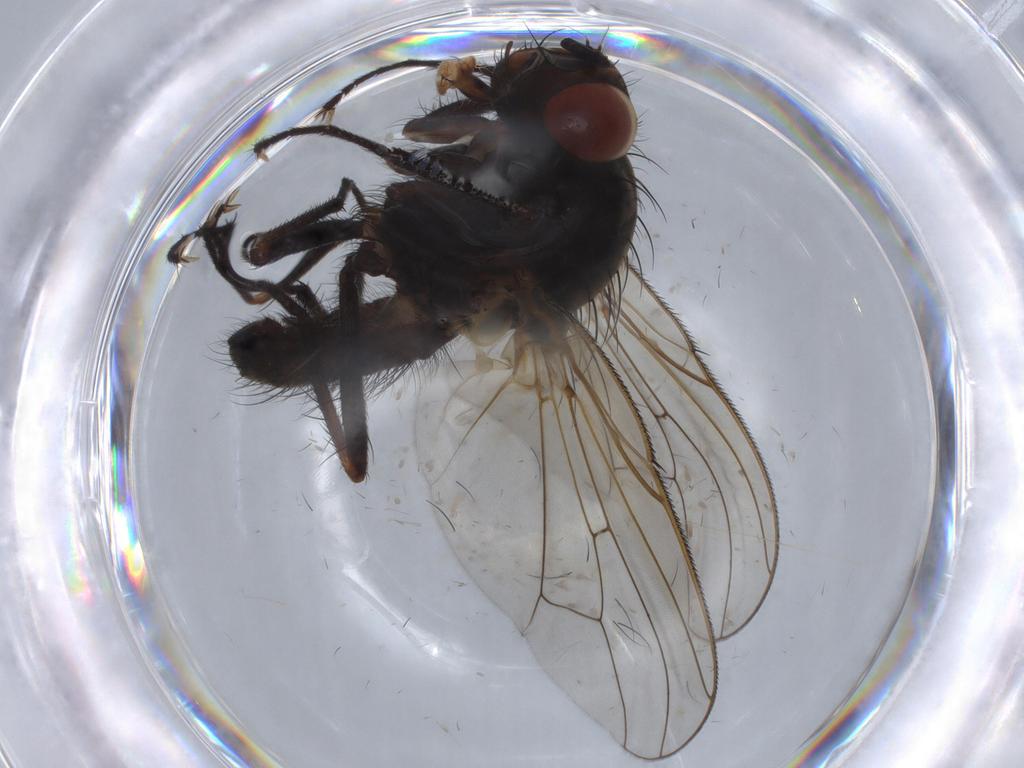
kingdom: Animalia
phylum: Arthropoda
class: Insecta
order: Diptera
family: Anthomyiidae
